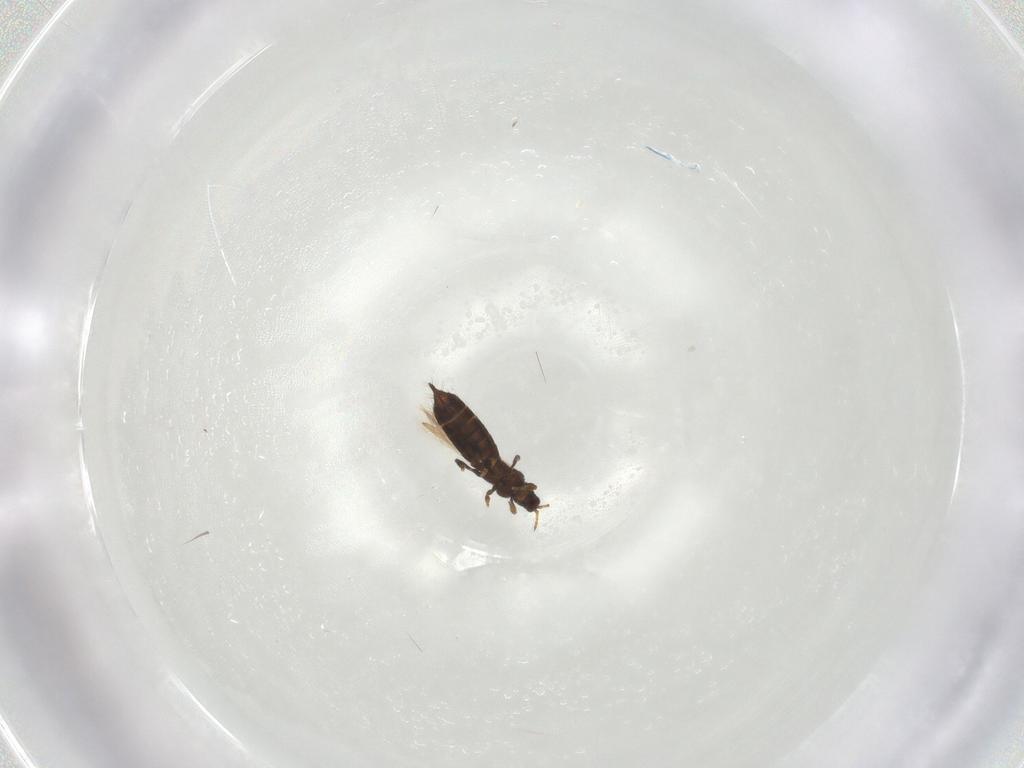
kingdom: Animalia
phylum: Arthropoda
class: Insecta
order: Thysanoptera
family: Thripidae
